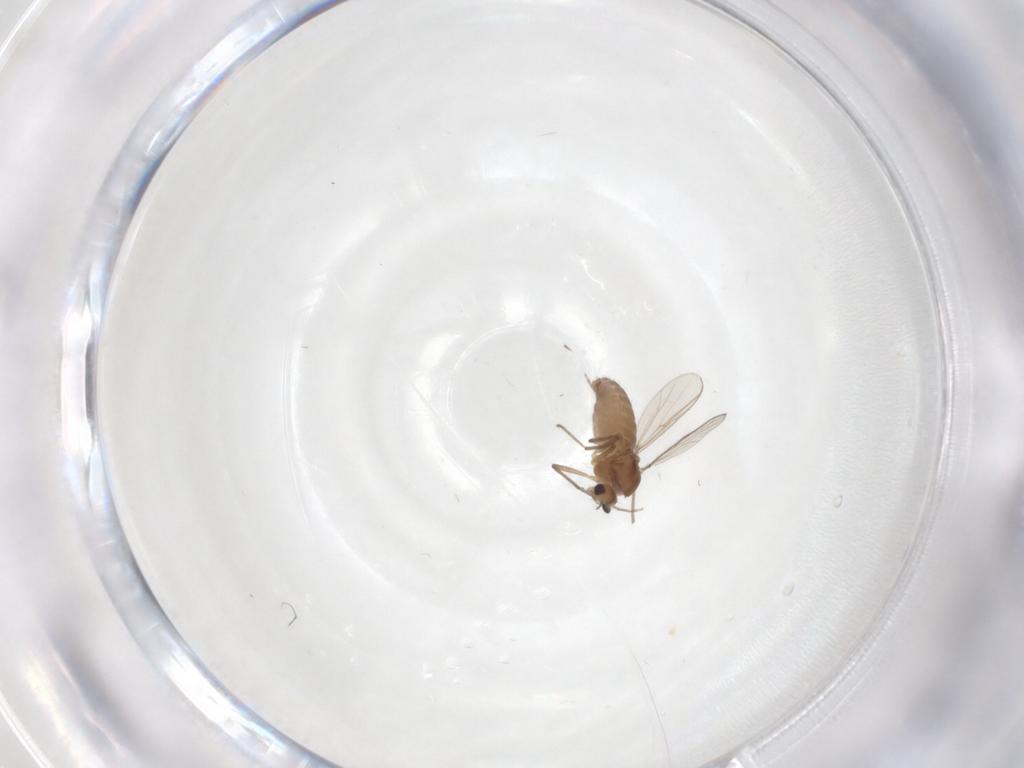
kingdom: Animalia
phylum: Arthropoda
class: Insecta
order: Diptera
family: Chironomidae
